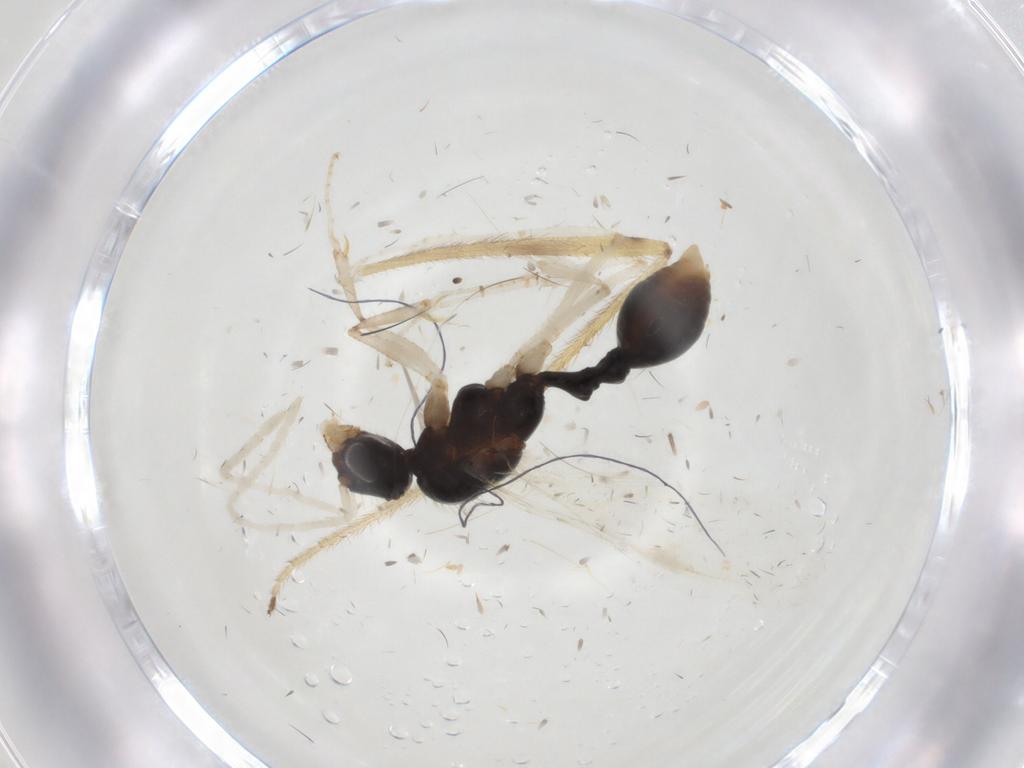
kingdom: Animalia
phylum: Arthropoda
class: Insecta
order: Hymenoptera
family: Formicidae
